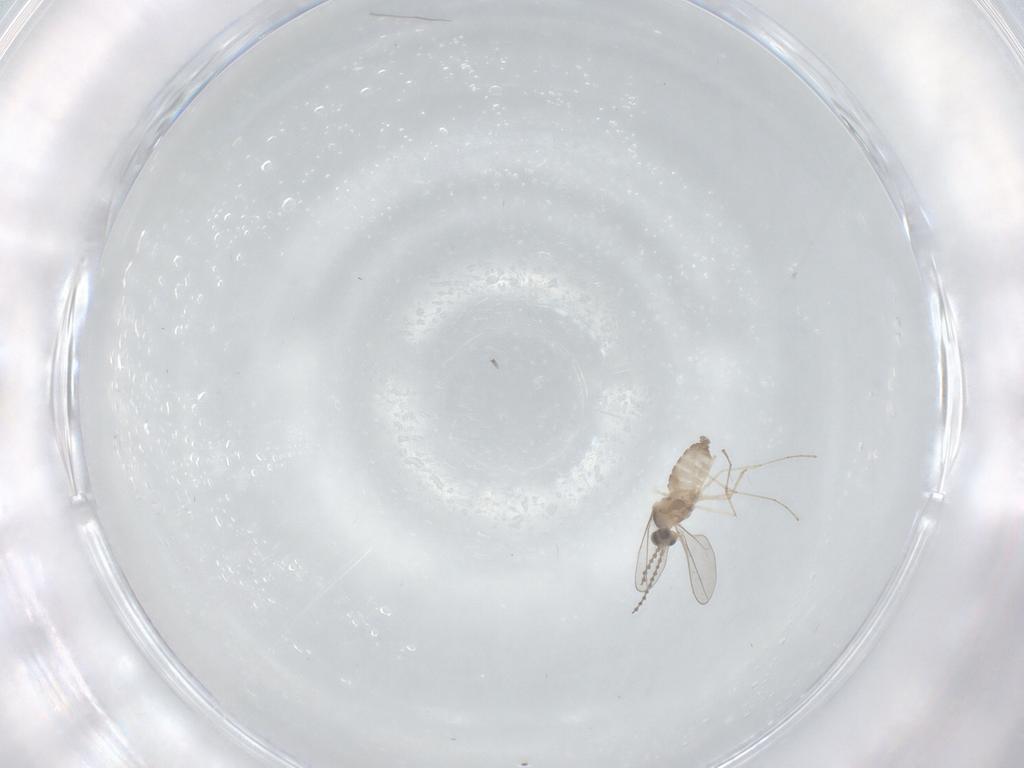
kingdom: Animalia
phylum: Arthropoda
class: Insecta
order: Diptera
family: Cecidomyiidae
